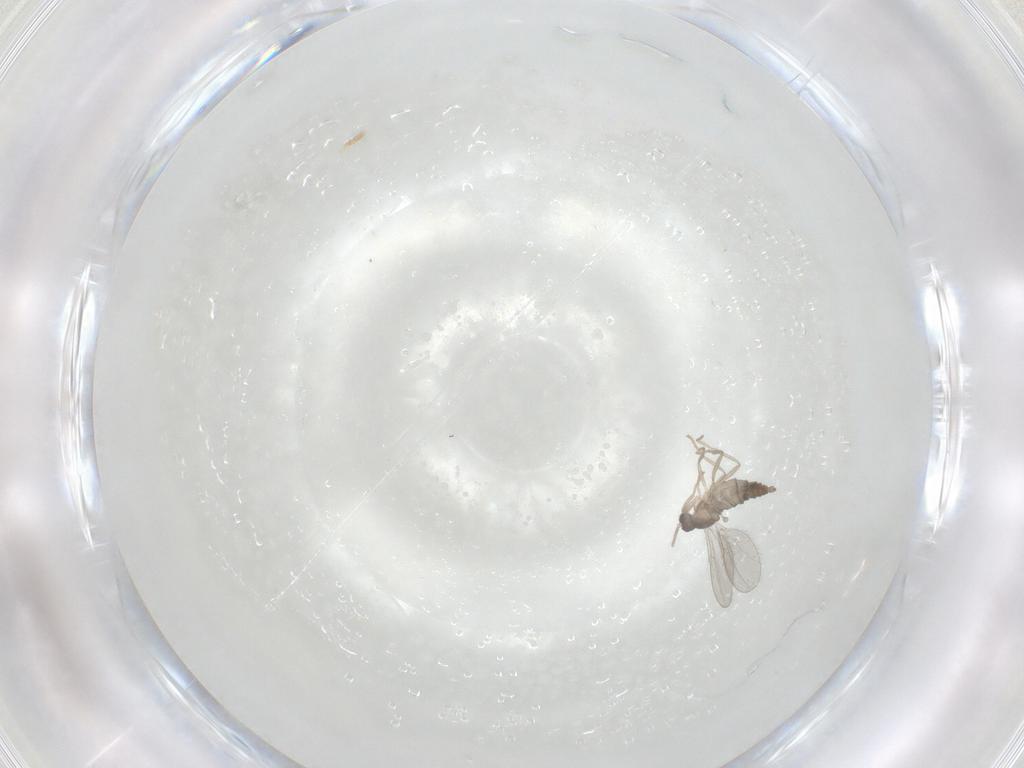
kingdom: Animalia
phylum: Arthropoda
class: Insecta
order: Diptera
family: Cecidomyiidae
